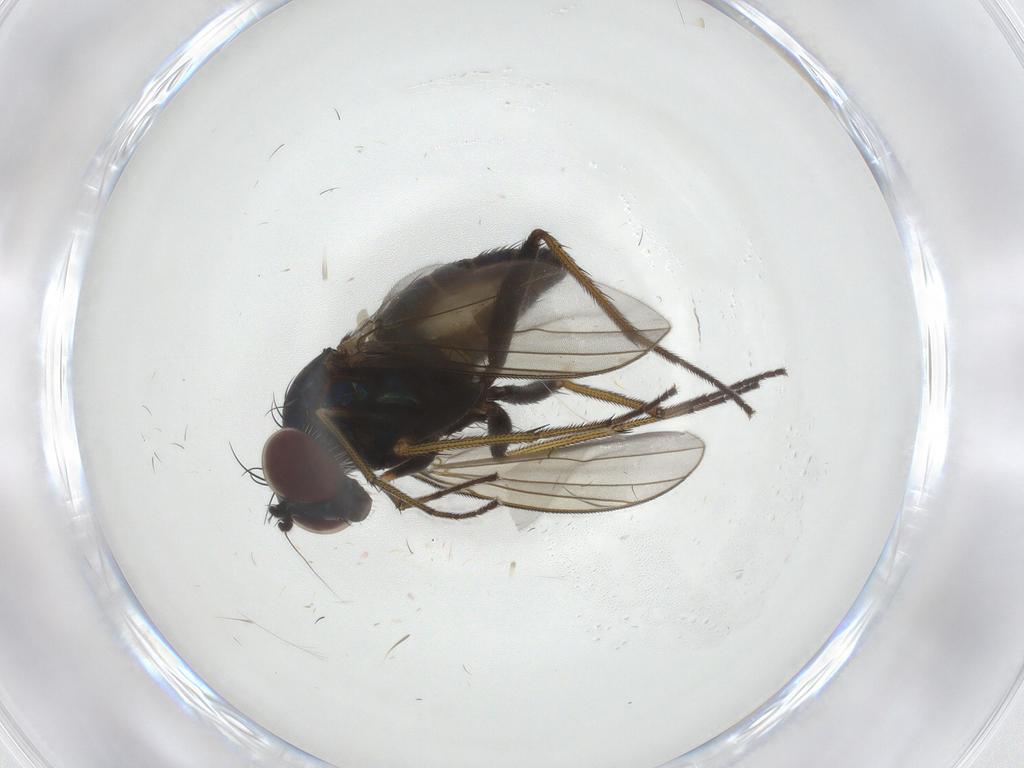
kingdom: Animalia
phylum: Arthropoda
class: Insecta
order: Diptera
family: Dolichopodidae
